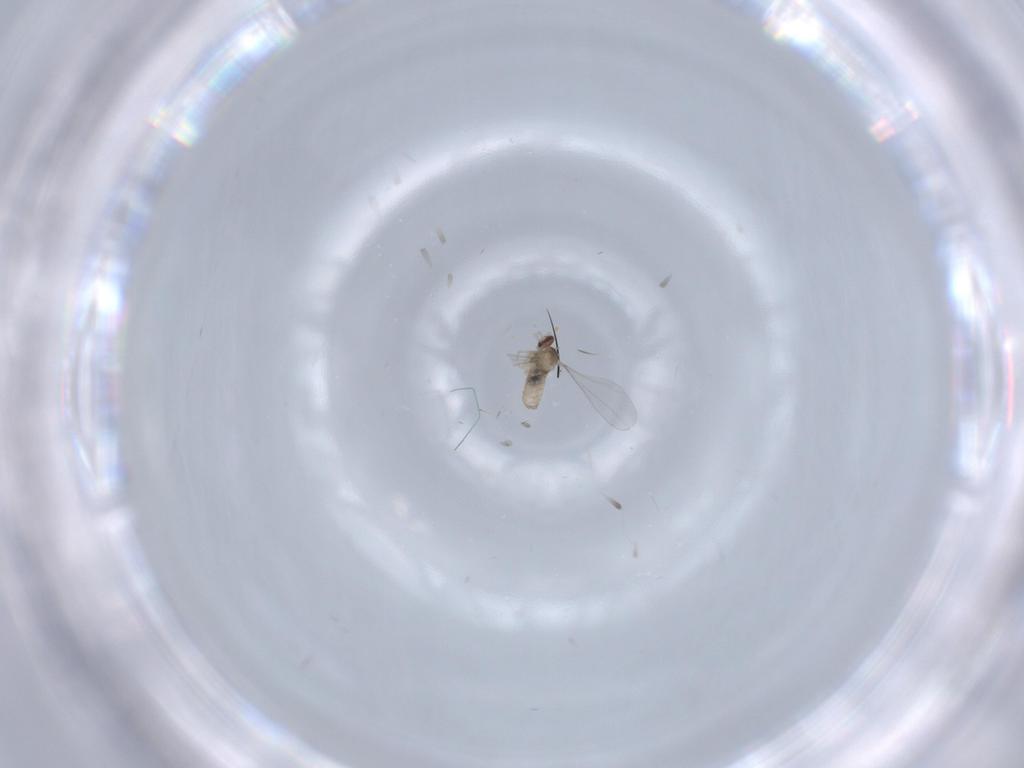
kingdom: Animalia
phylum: Arthropoda
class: Insecta
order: Diptera
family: Cecidomyiidae
